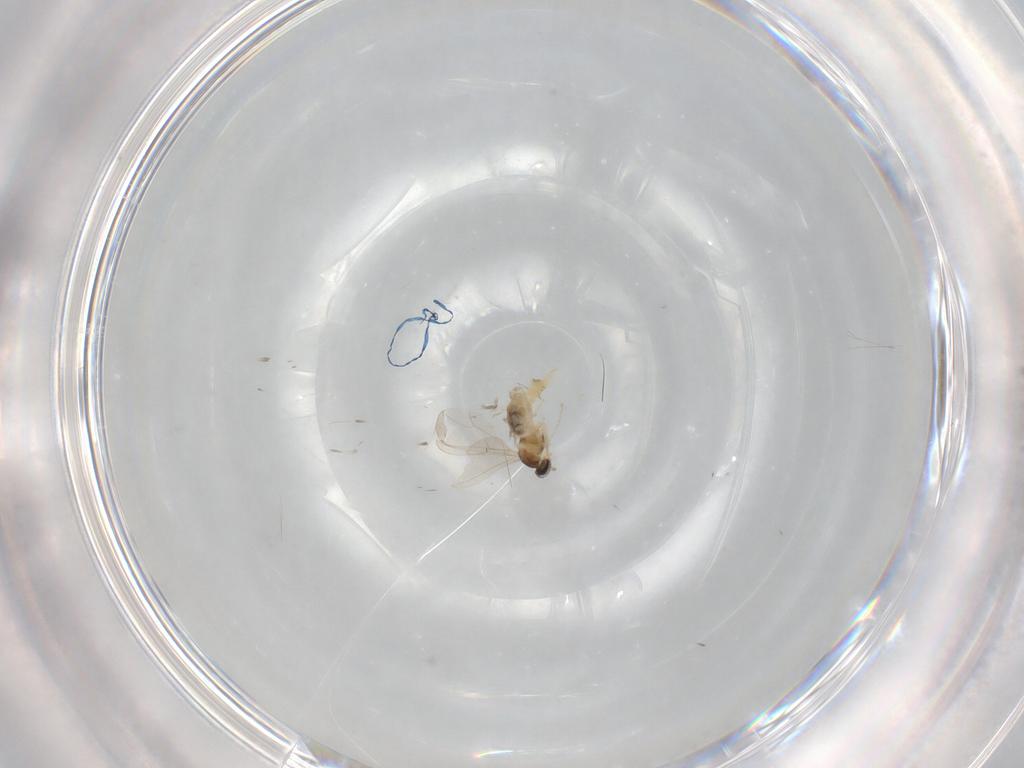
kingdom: Animalia
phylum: Arthropoda
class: Insecta
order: Diptera
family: Cecidomyiidae
